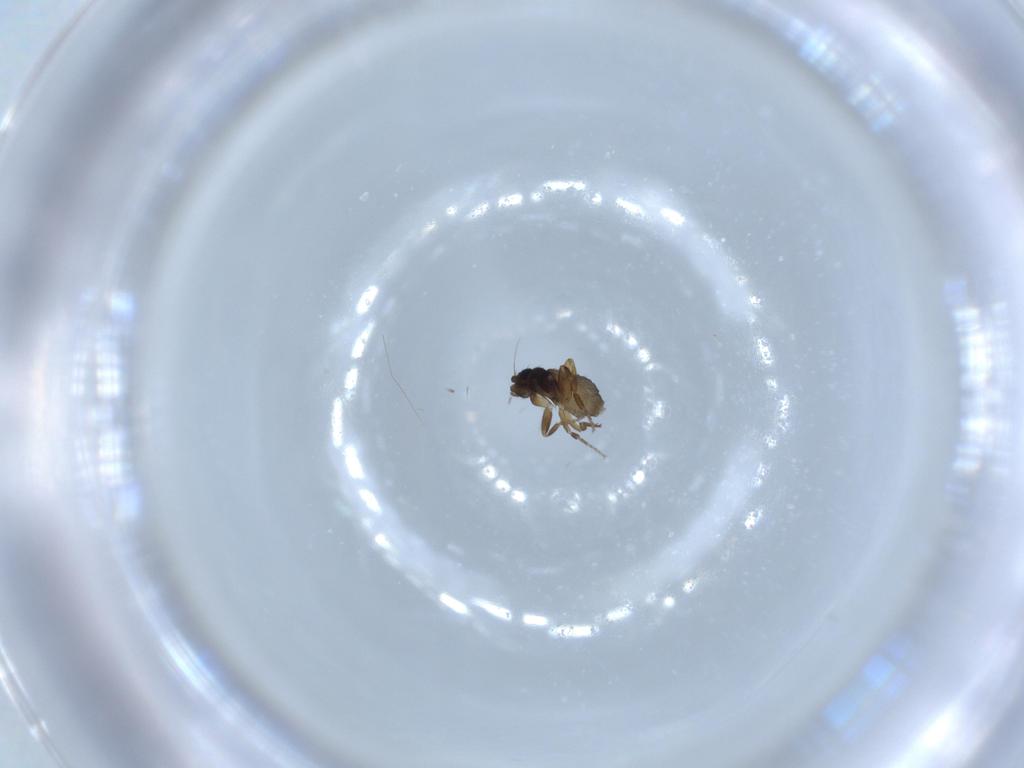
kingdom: Animalia
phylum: Arthropoda
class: Insecta
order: Diptera
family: Phoridae
